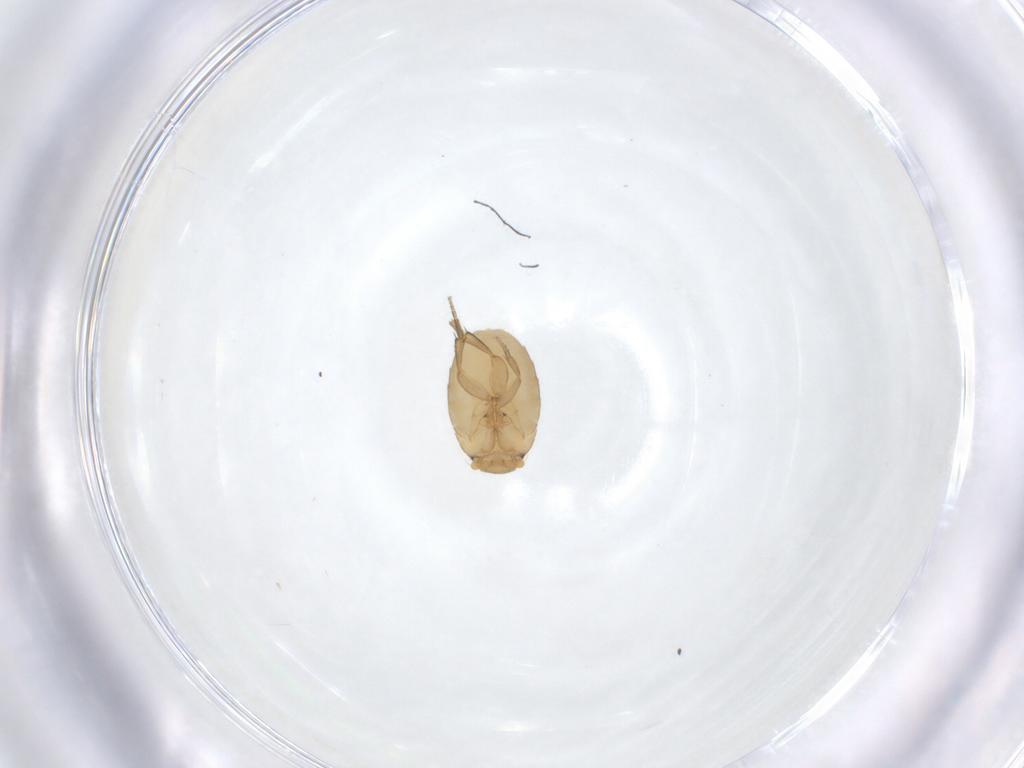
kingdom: Animalia
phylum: Arthropoda
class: Insecta
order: Diptera
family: Phoridae
